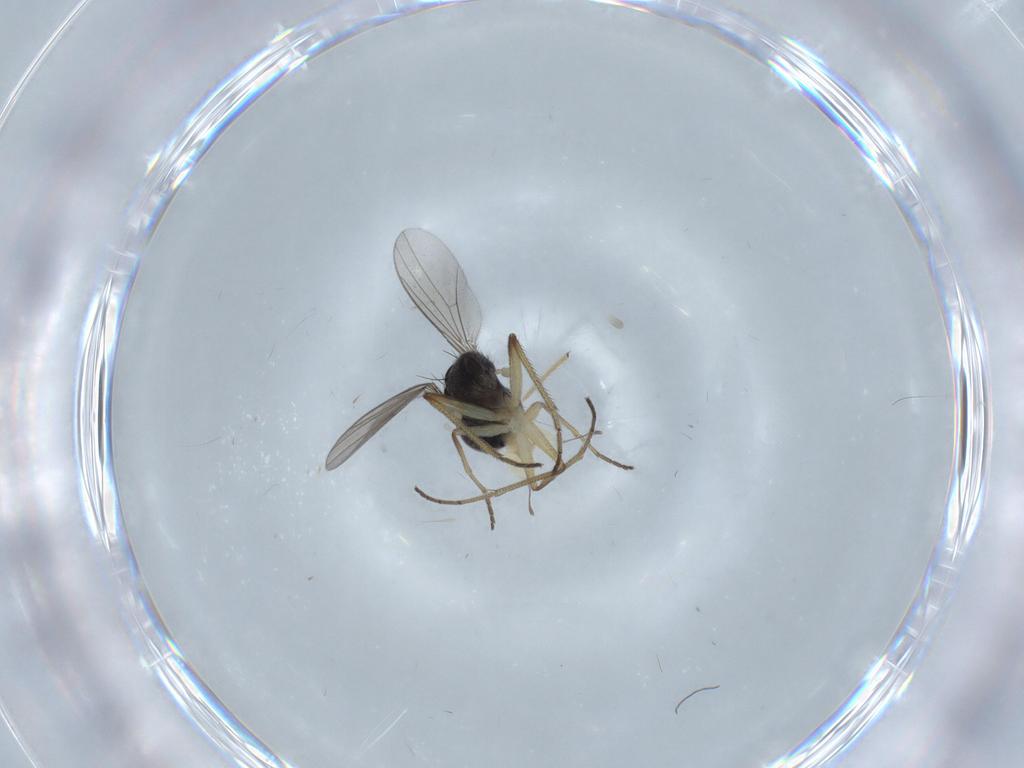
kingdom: Animalia
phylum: Arthropoda
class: Insecta
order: Diptera
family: Dolichopodidae
